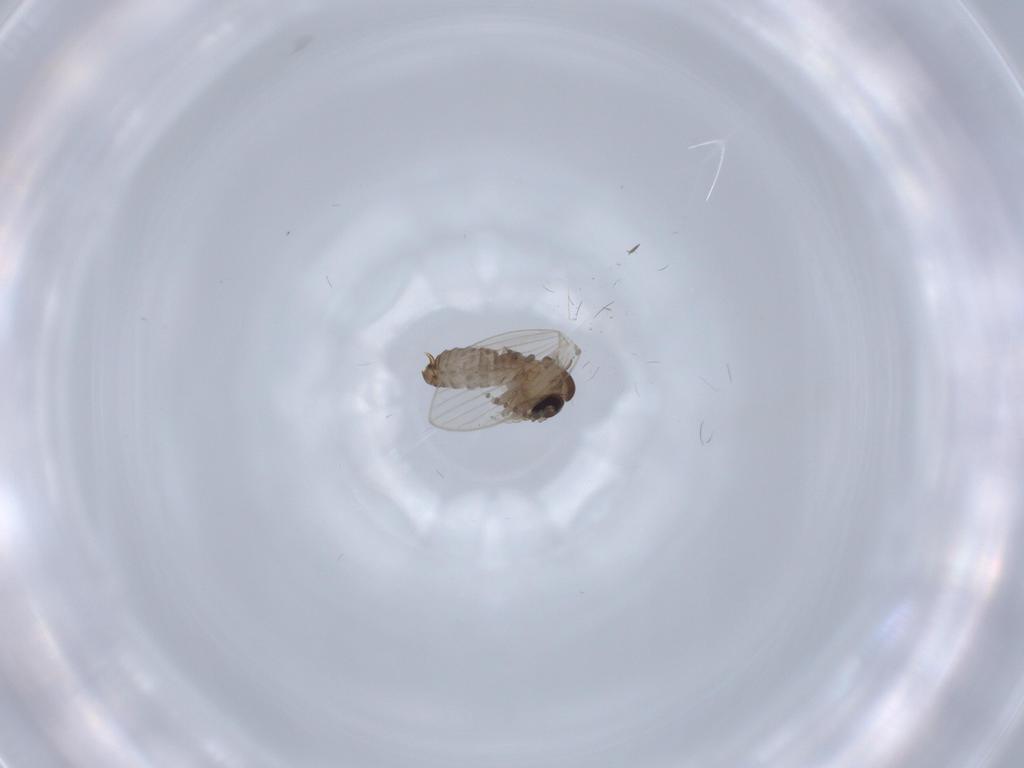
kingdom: Animalia
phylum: Arthropoda
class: Insecta
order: Diptera
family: Psychodidae
